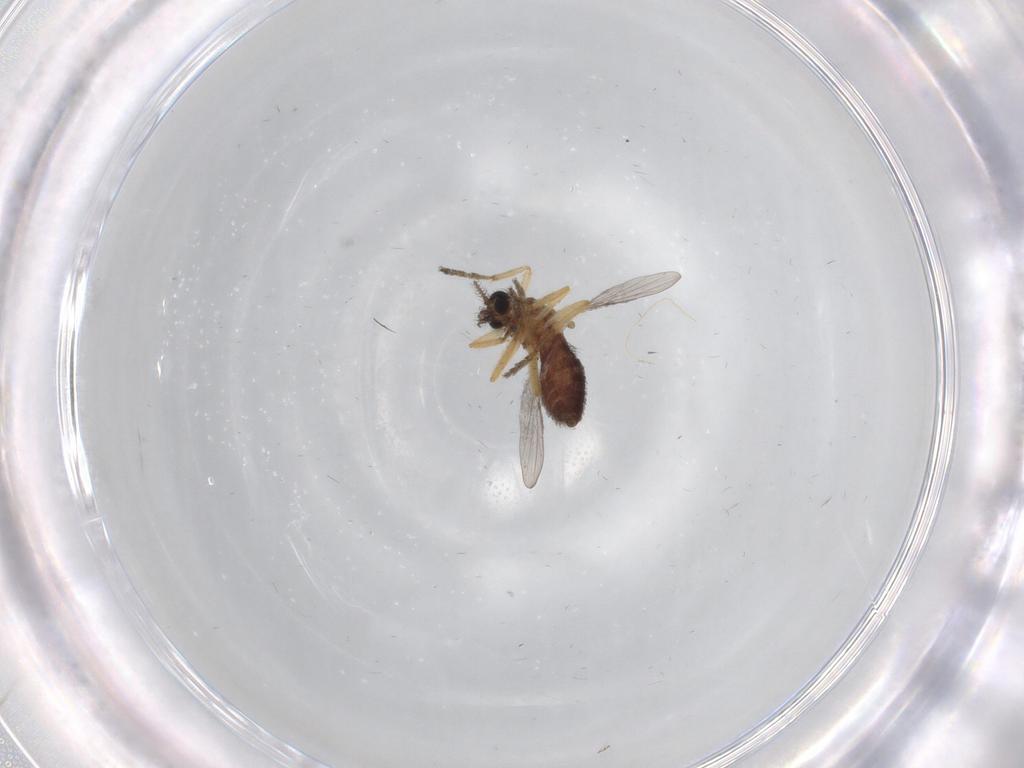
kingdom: Animalia
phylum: Arthropoda
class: Insecta
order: Diptera
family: Ceratopogonidae
